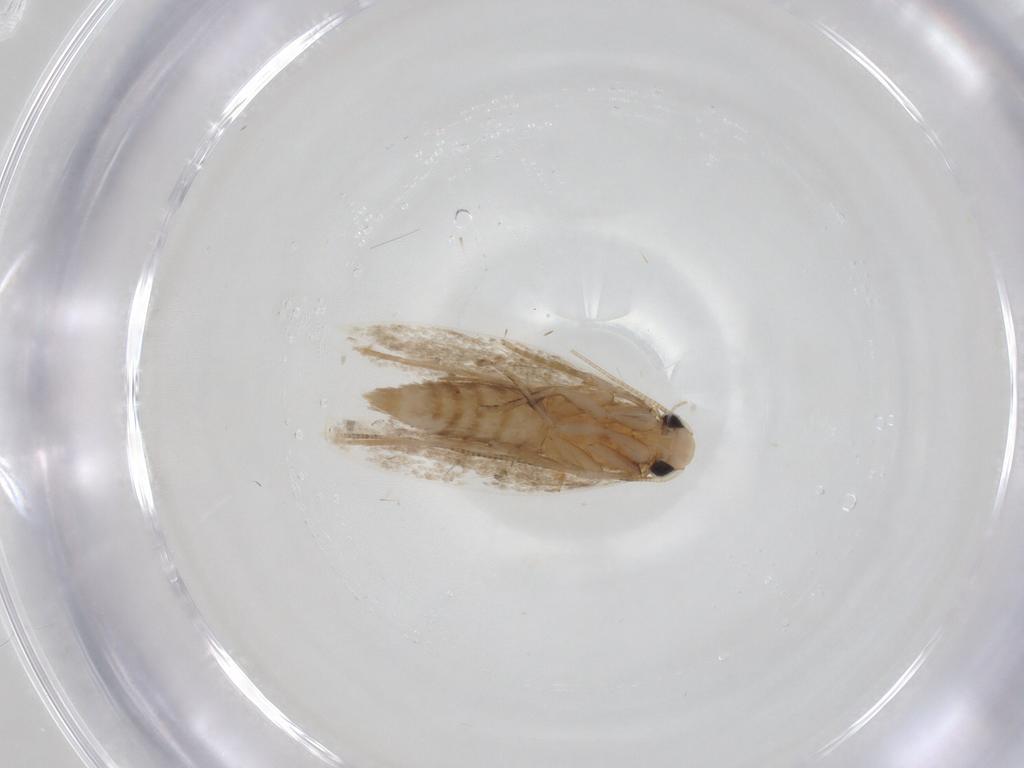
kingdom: Animalia
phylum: Arthropoda
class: Insecta
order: Lepidoptera
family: Tineidae
